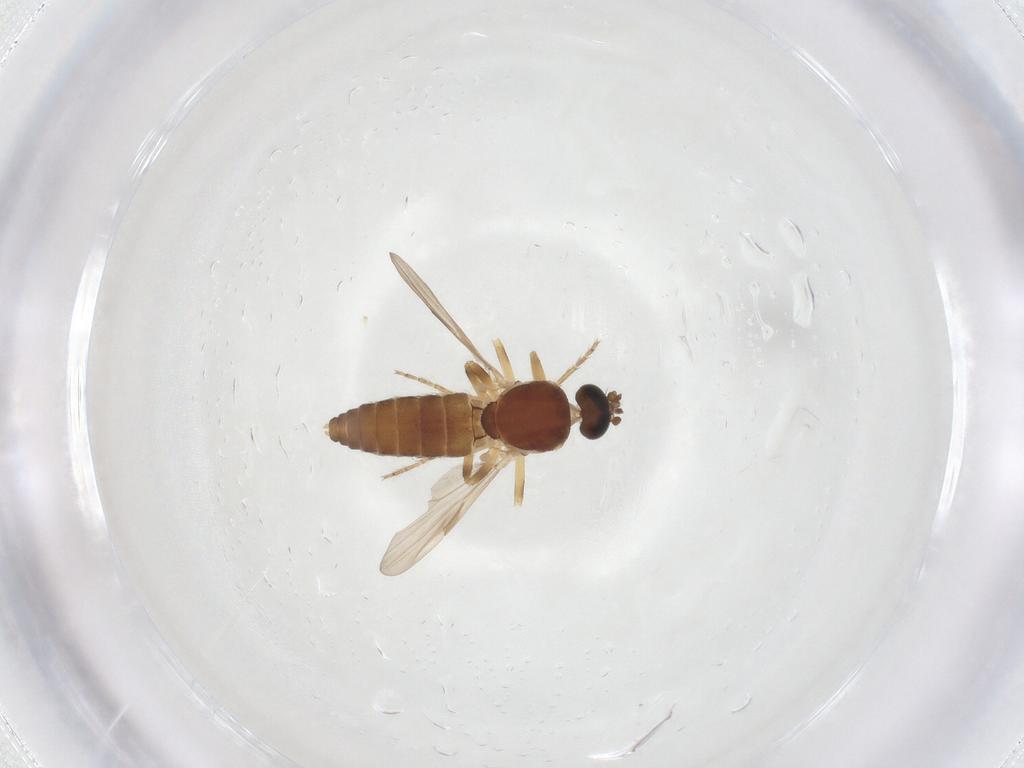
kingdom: Animalia
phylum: Arthropoda
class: Insecta
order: Diptera
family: Ceratopogonidae
